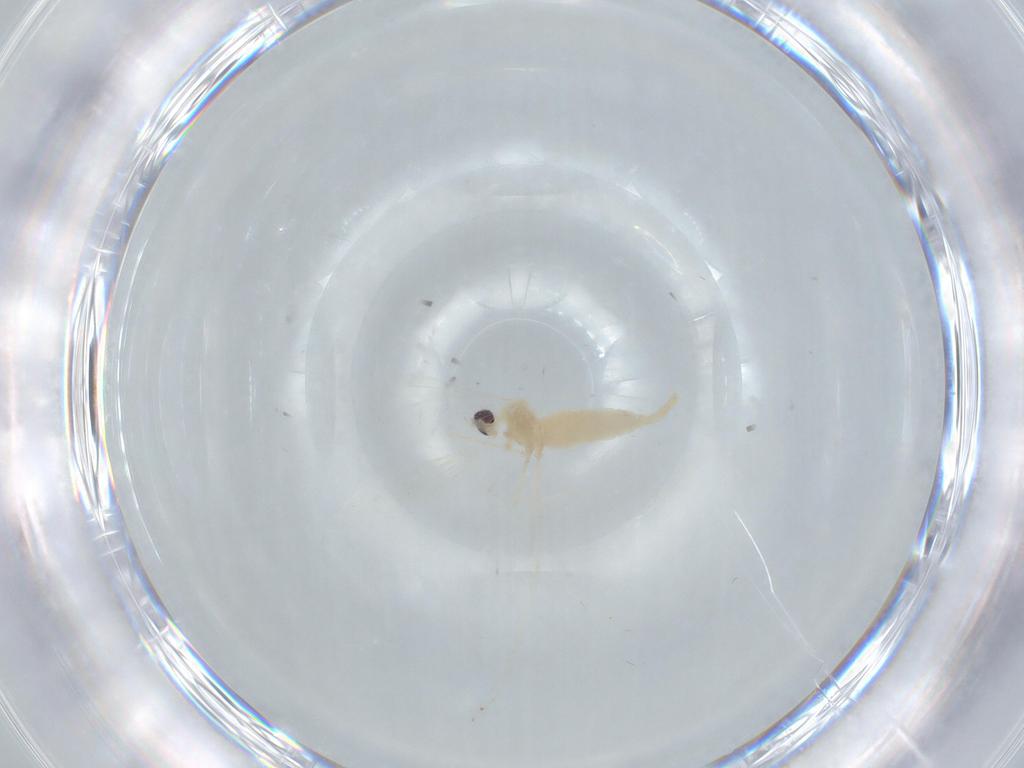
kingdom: Animalia
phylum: Arthropoda
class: Insecta
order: Diptera
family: Cecidomyiidae
